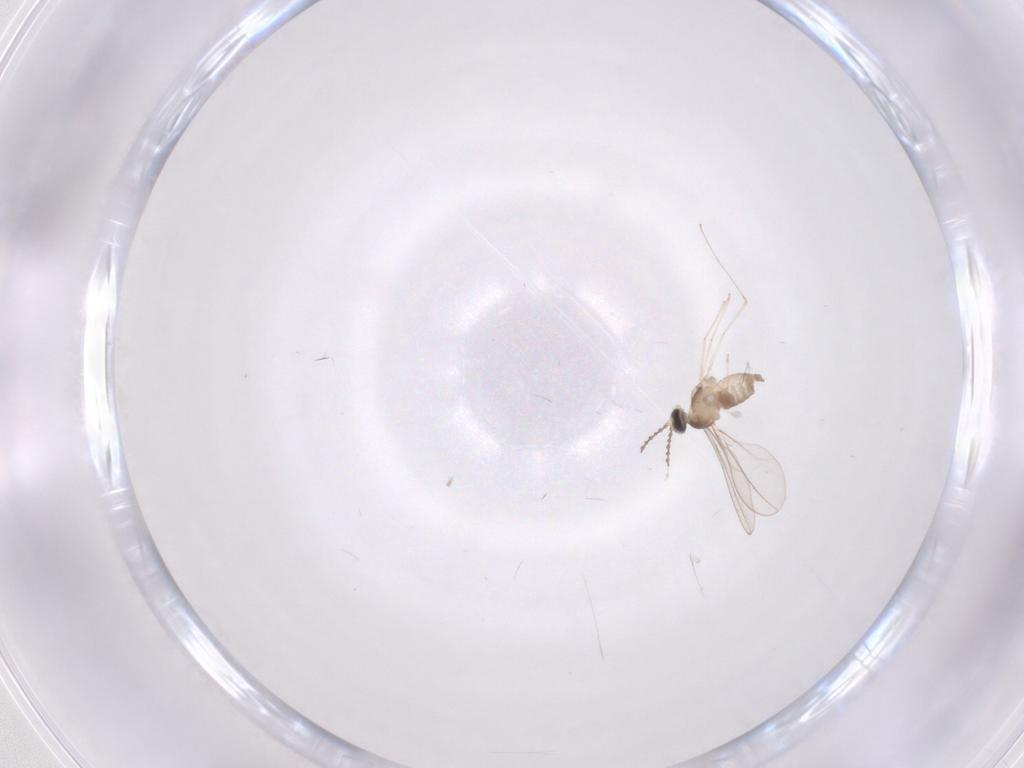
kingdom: Animalia
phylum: Arthropoda
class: Insecta
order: Diptera
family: Cecidomyiidae
